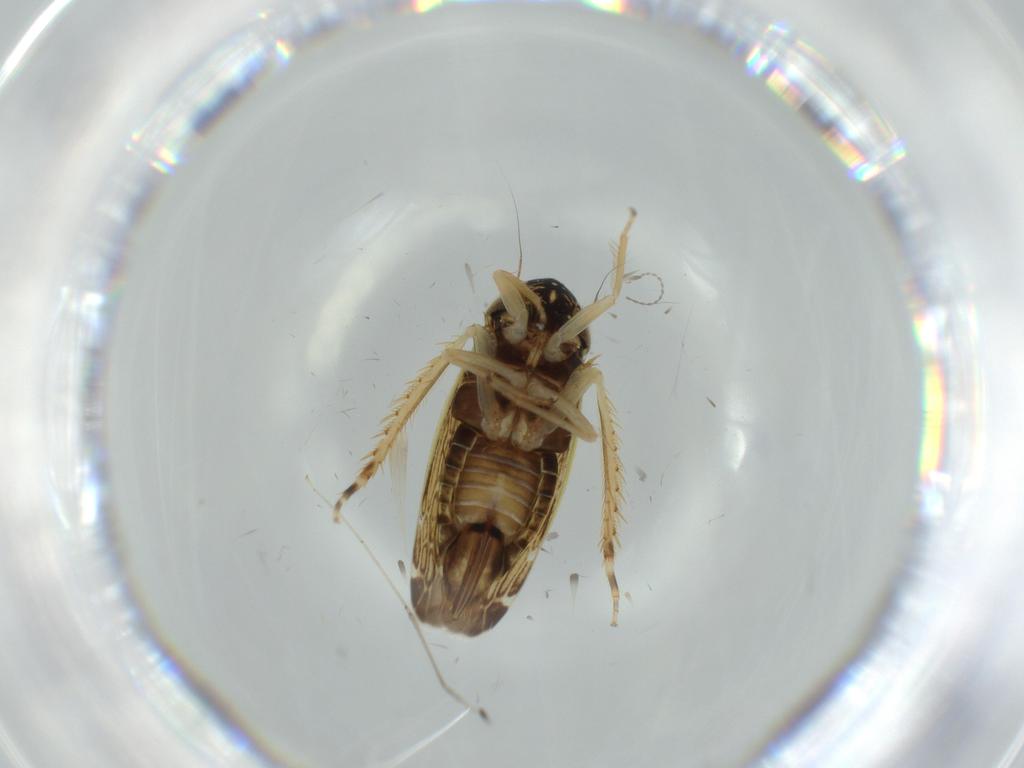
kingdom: Animalia
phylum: Arthropoda
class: Insecta
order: Hemiptera
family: Cicadellidae
